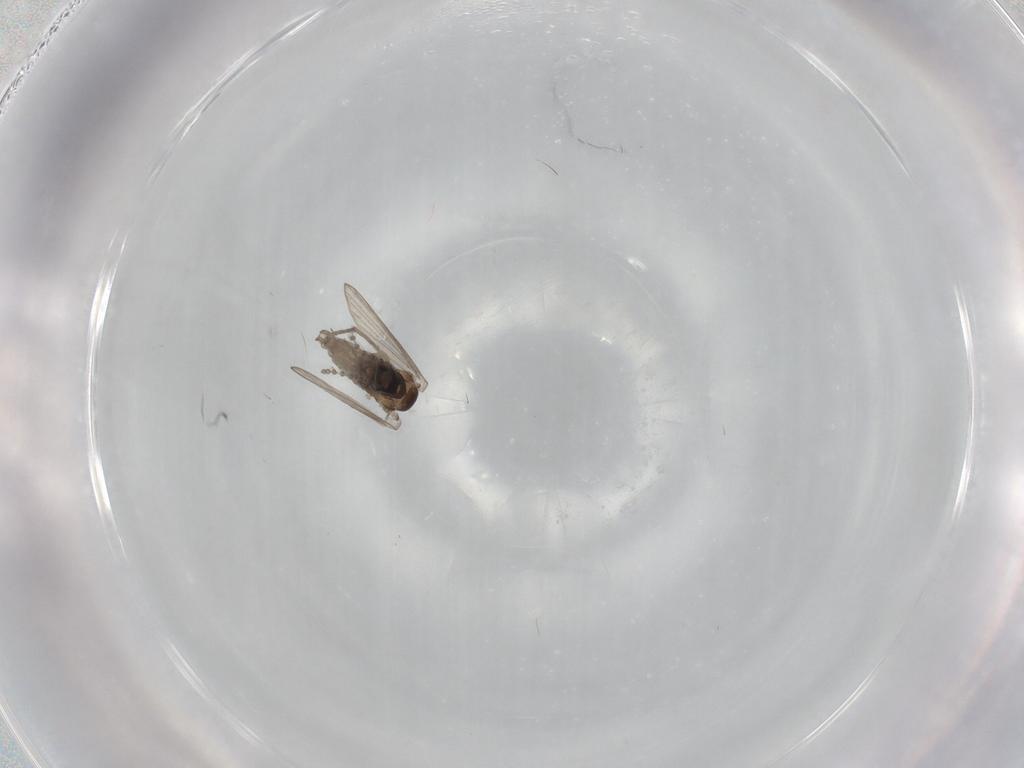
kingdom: Animalia
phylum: Arthropoda
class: Insecta
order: Diptera
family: Psychodidae
